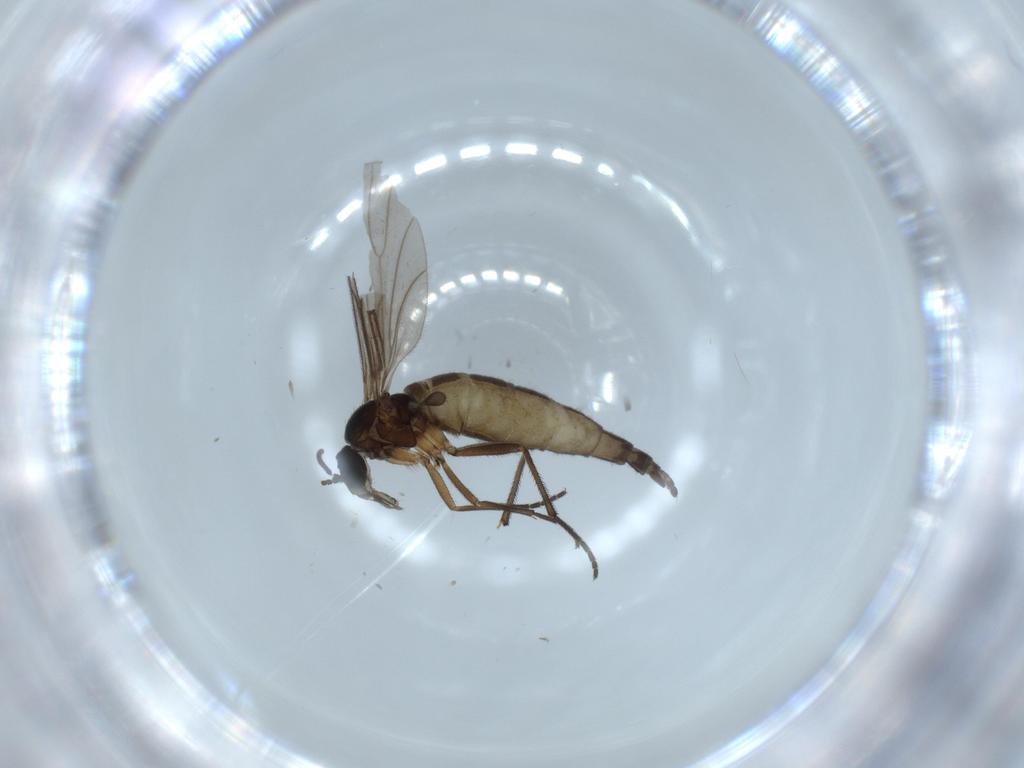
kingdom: Animalia
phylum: Arthropoda
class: Insecta
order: Diptera
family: Sciaridae
